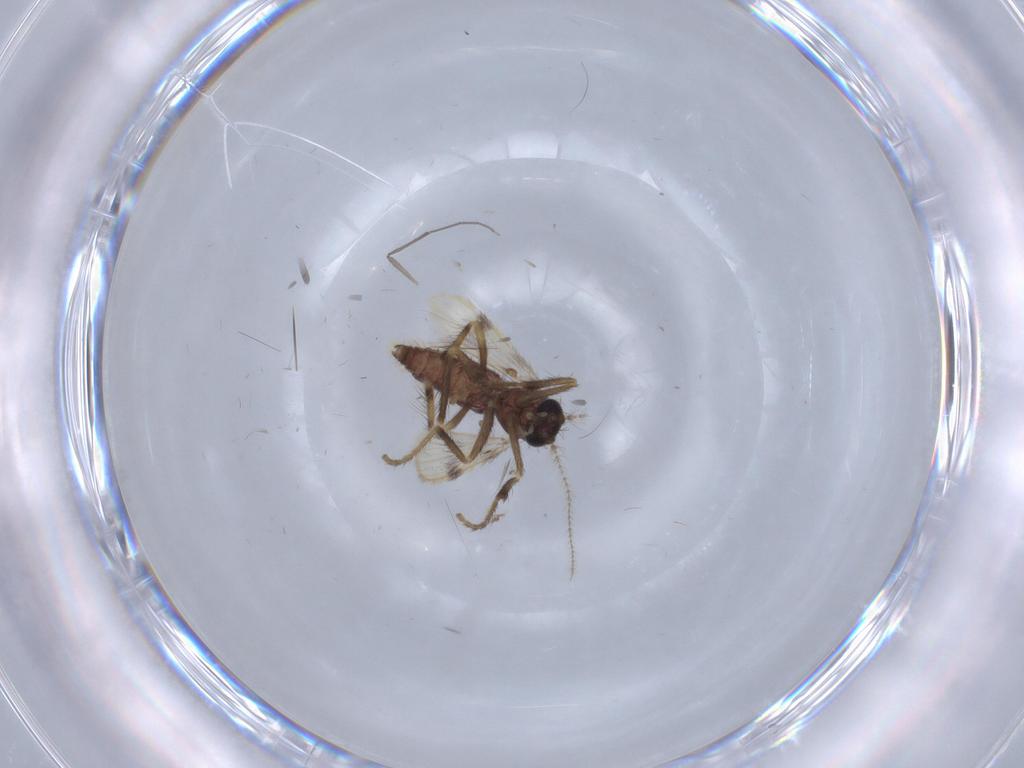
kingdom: Animalia
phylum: Arthropoda
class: Insecta
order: Diptera
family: Corethrellidae
